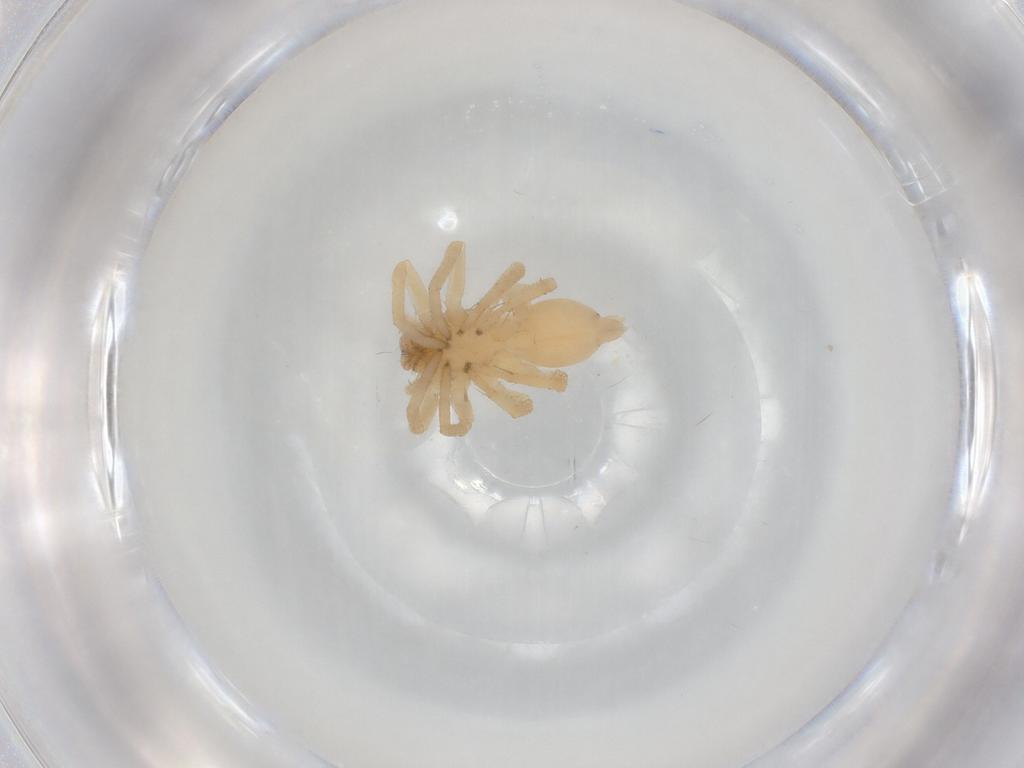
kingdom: Animalia
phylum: Arthropoda
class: Arachnida
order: Araneae
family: Clubionidae
